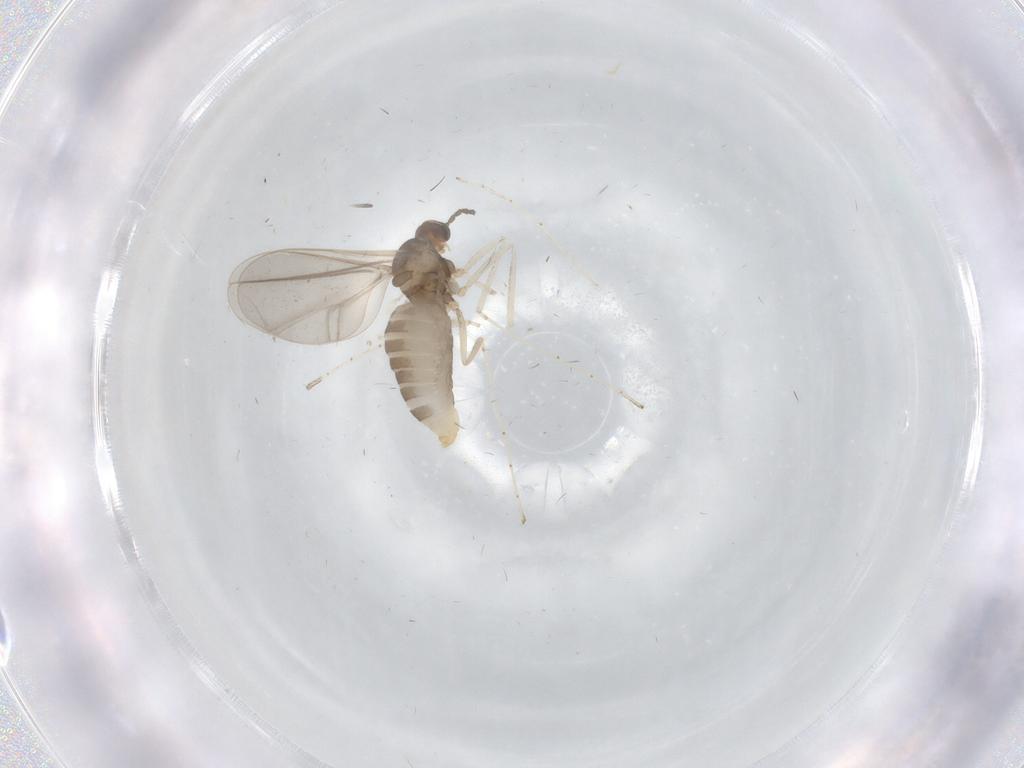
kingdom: Animalia
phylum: Arthropoda
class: Insecta
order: Diptera
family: Cecidomyiidae
